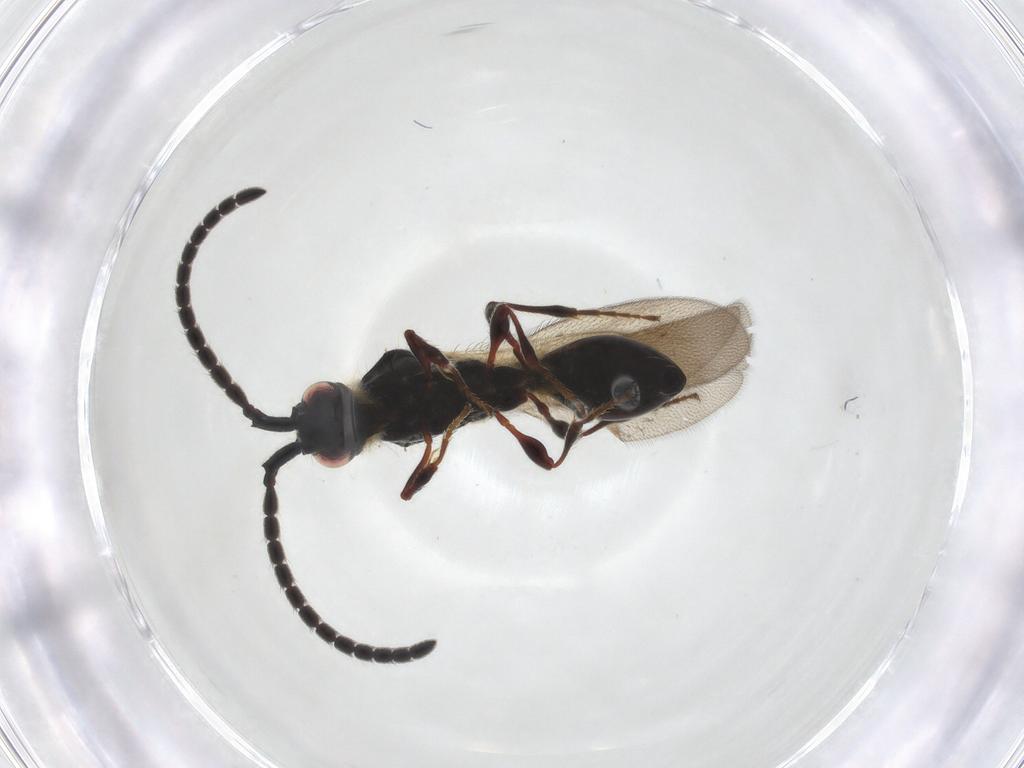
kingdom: Animalia
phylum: Arthropoda
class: Insecta
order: Hymenoptera
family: Diapriidae
